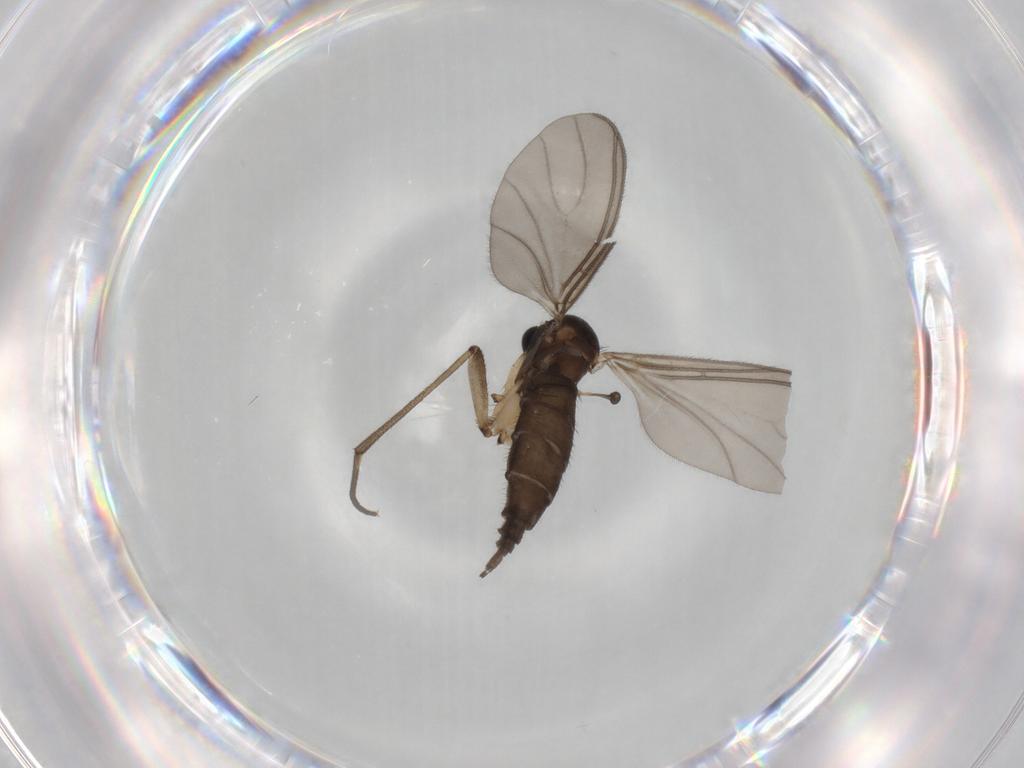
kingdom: Animalia
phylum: Arthropoda
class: Insecta
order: Diptera
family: Sciaridae
